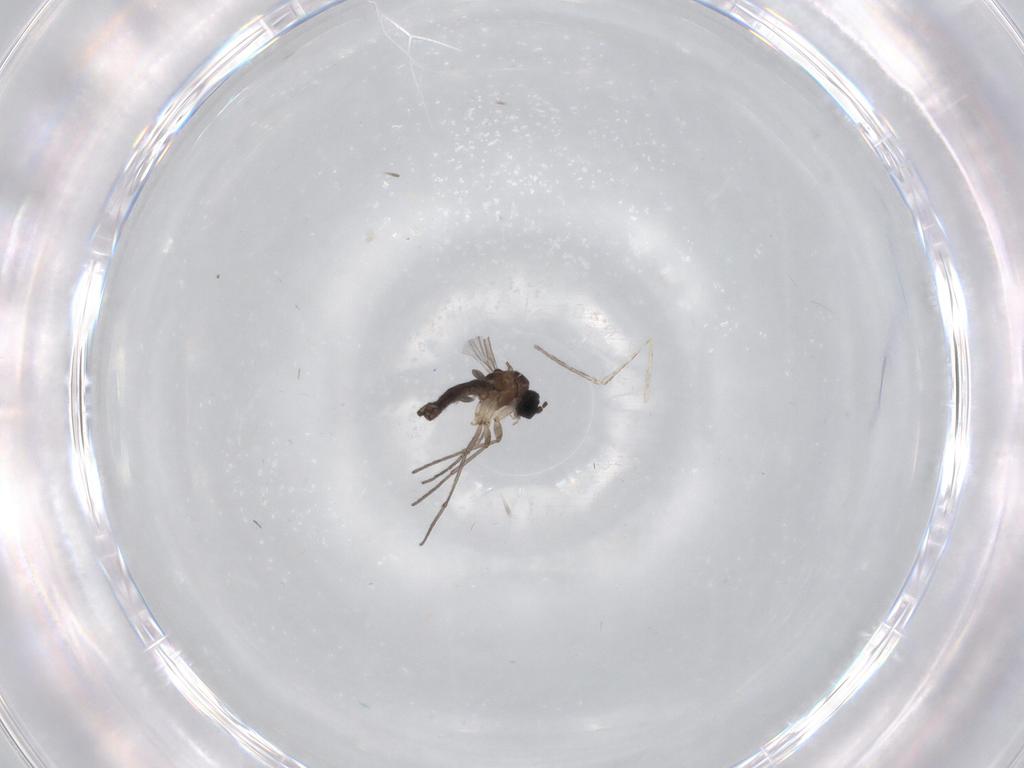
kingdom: Animalia
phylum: Arthropoda
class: Insecta
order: Diptera
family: Sciaridae
